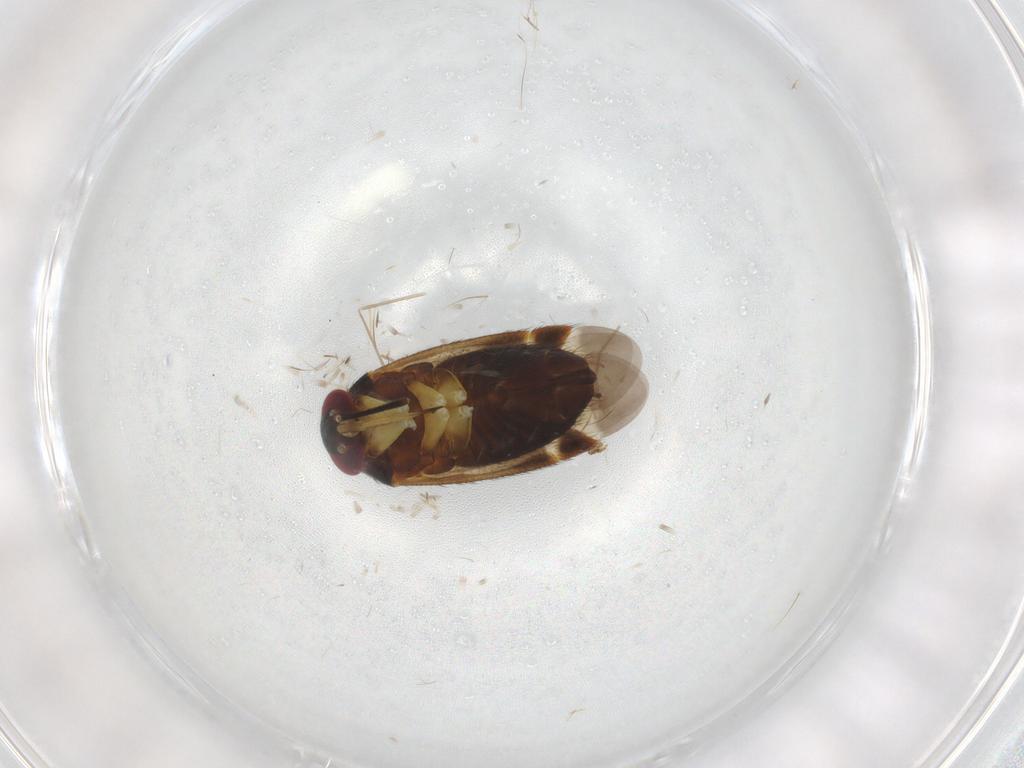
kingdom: Animalia
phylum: Arthropoda
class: Insecta
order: Hemiptera
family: Miridae
